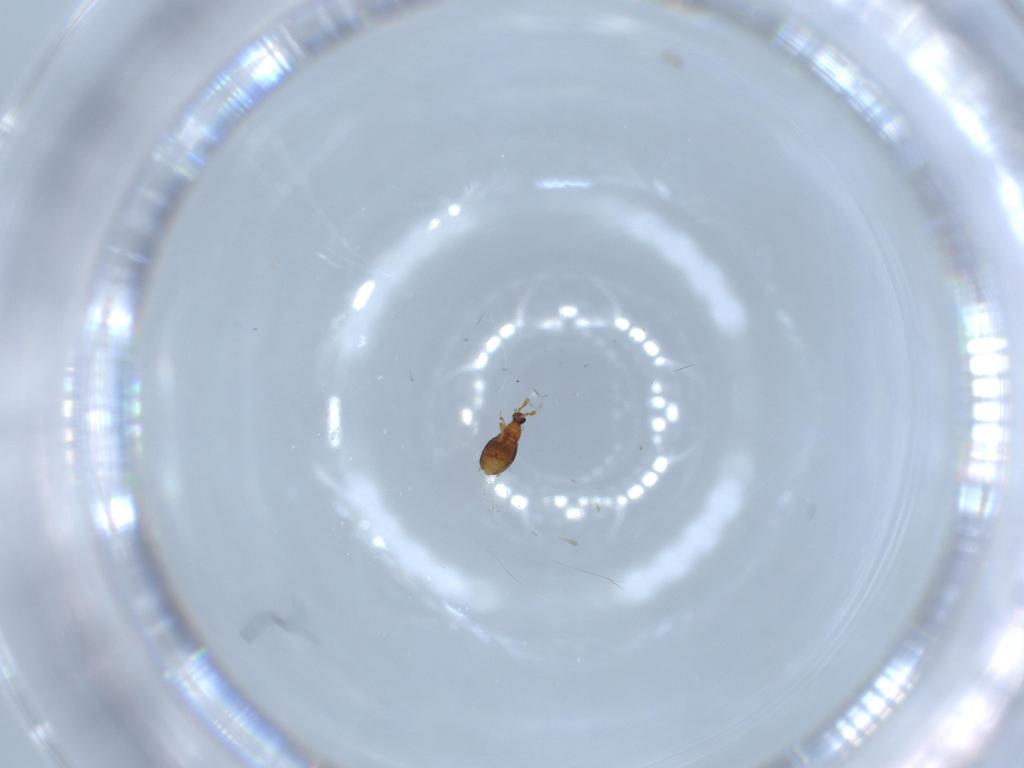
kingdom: Animalia
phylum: Arthropoda
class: Insecta
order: Coleoptera
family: Staphylinidae
